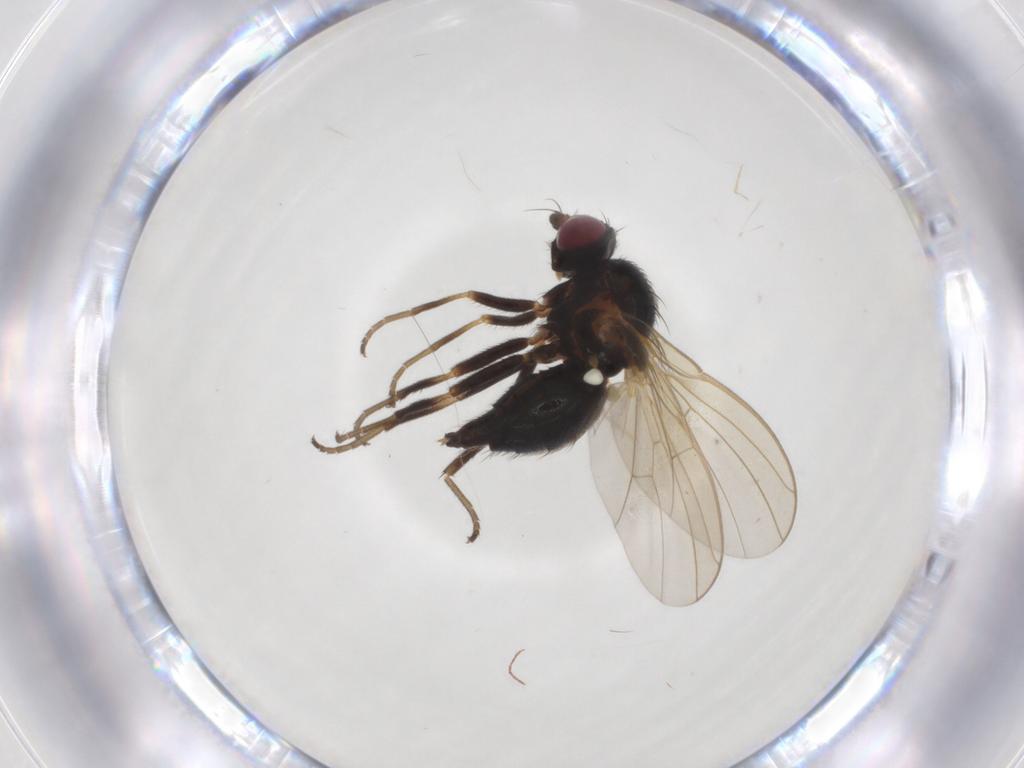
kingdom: Animalia
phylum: Arthropoda
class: Insecta
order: Diptera
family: Agromyzidae
